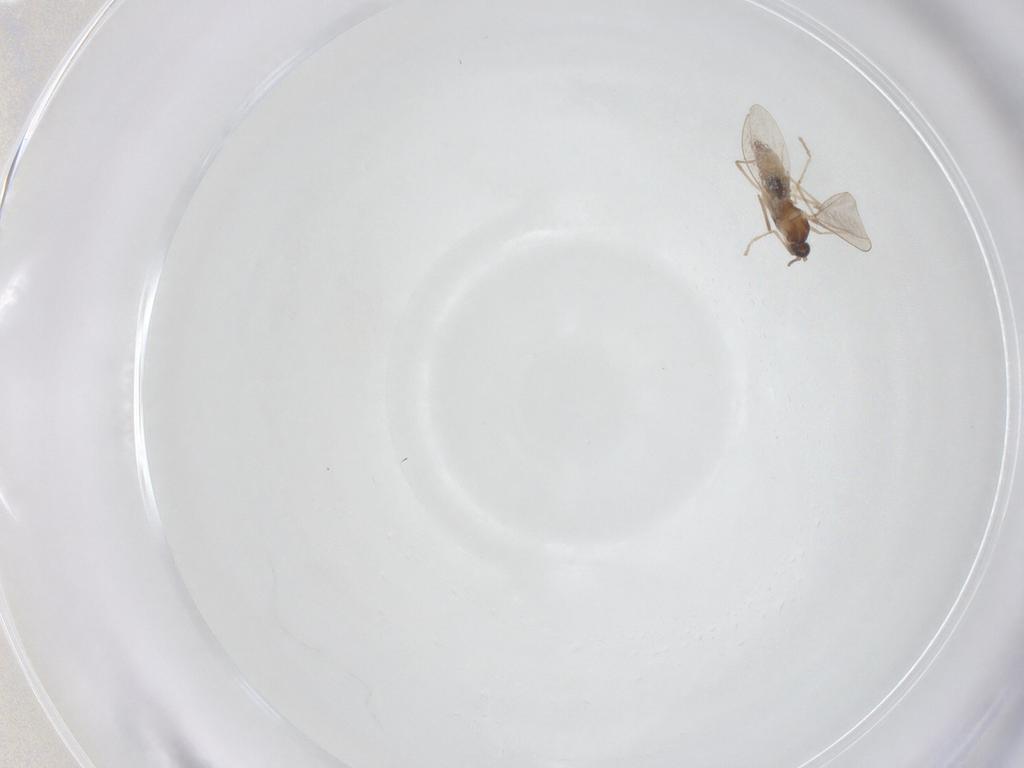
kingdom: Animalia
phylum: Arthropoda
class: Insecta
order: Diptera
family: Cecidomyiidae
